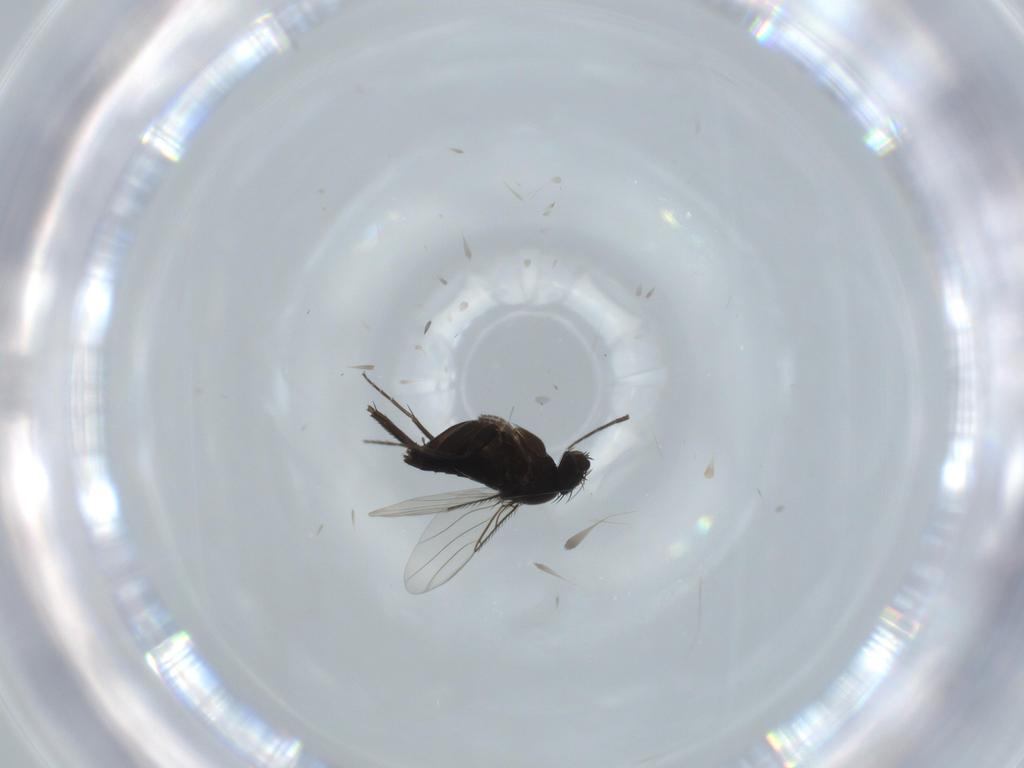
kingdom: Animalia
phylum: Arthropoda
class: Insecta
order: Diptera
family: Phoridae
